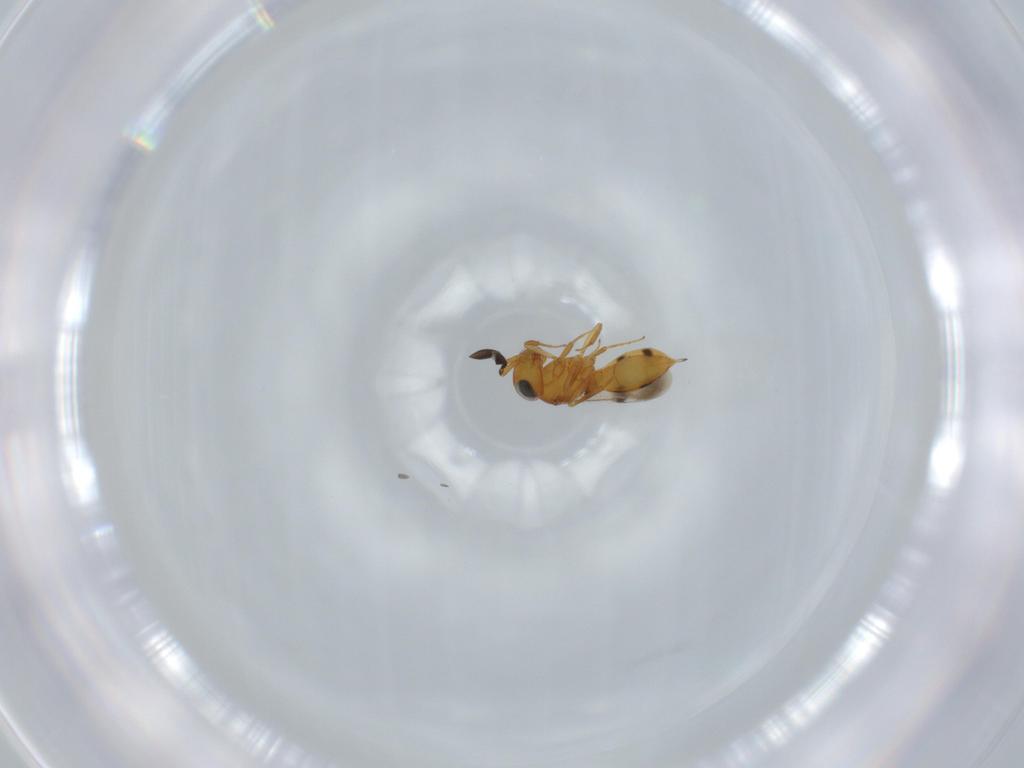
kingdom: Animalia
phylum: Arthropoda
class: Insecta
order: Hymenoptera
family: Scelionidae
